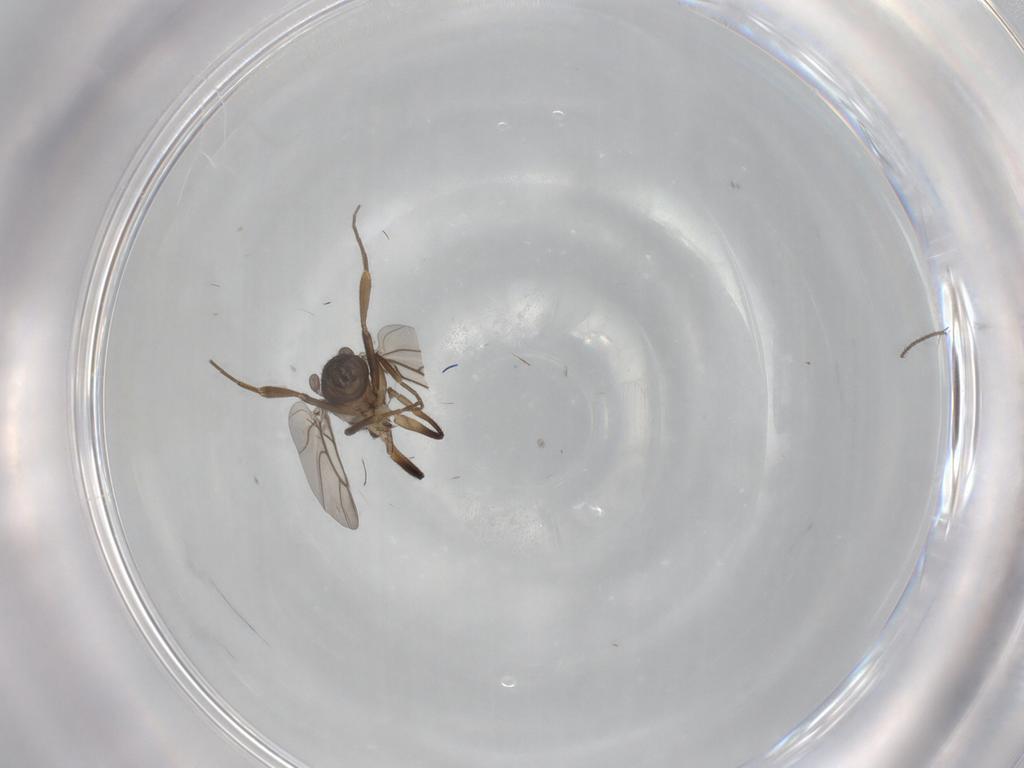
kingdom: Animalia
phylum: Arthropoda
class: Insecta
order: Diptera
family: Phoridae
